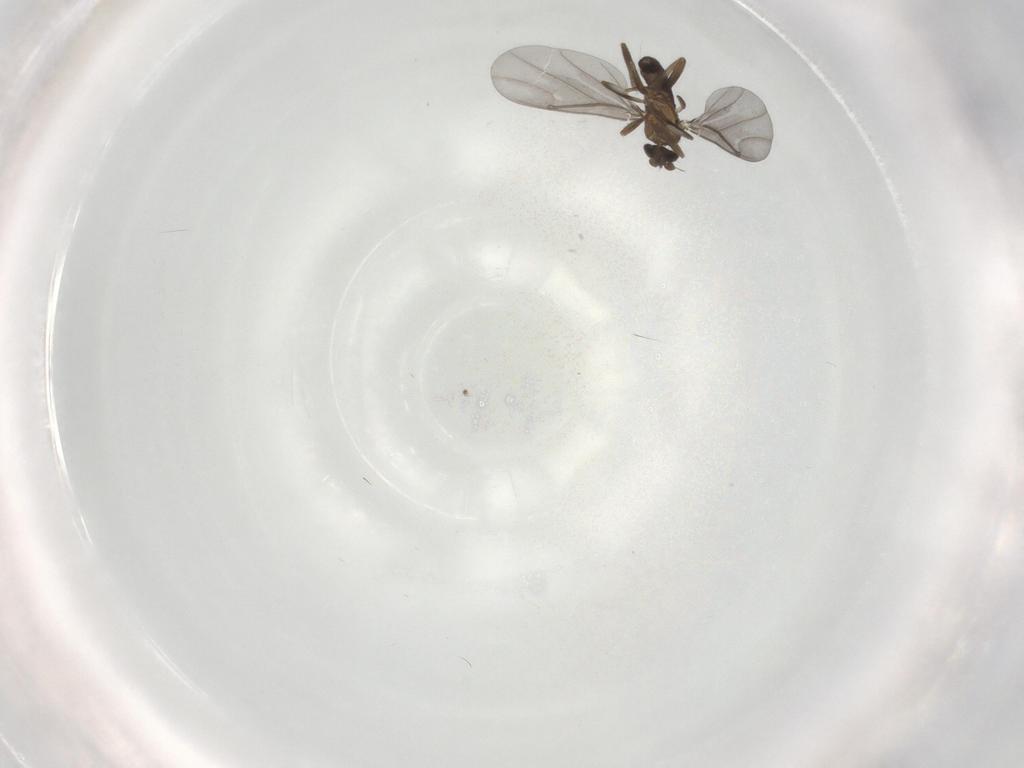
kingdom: Animalia
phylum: Arthropoda
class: Insecta
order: Diptera
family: Phoridae
